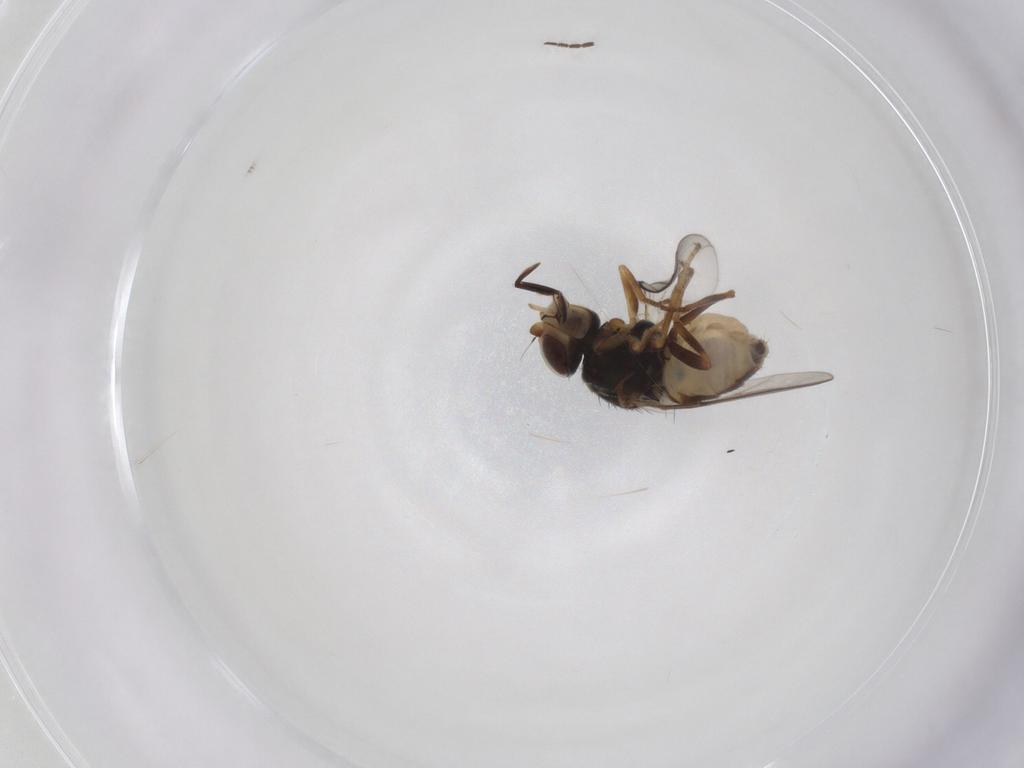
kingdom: Animalia
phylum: Arthropoda
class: Insecta
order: Diptera
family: Chloropidae
